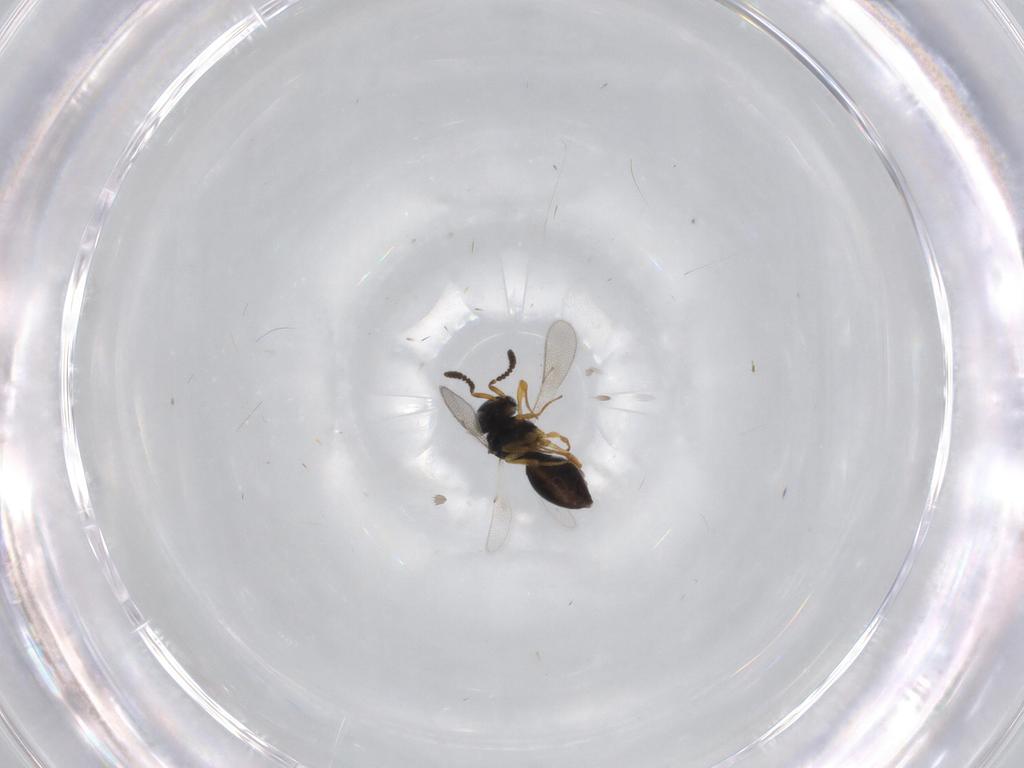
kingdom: Animalia
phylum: Arthropoda
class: Insecta
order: Hymenoptera
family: Scelionidae
